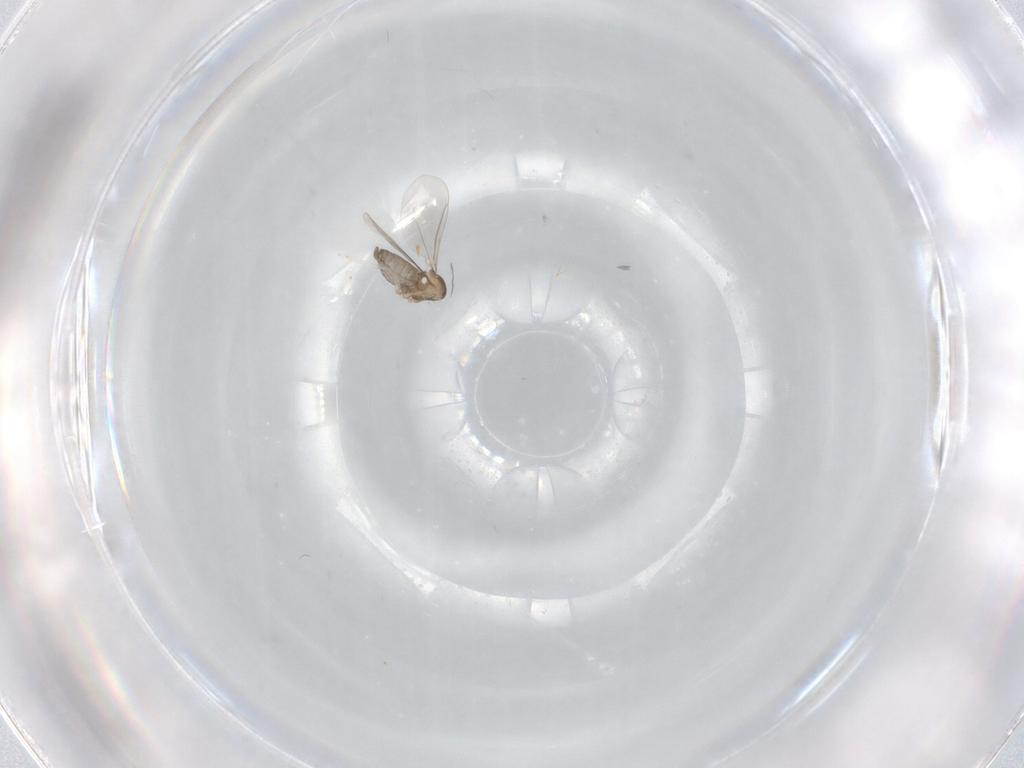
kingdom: Animalia
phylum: Arthropoda
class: Insecta
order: Diptera
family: Cecidomyiidae
